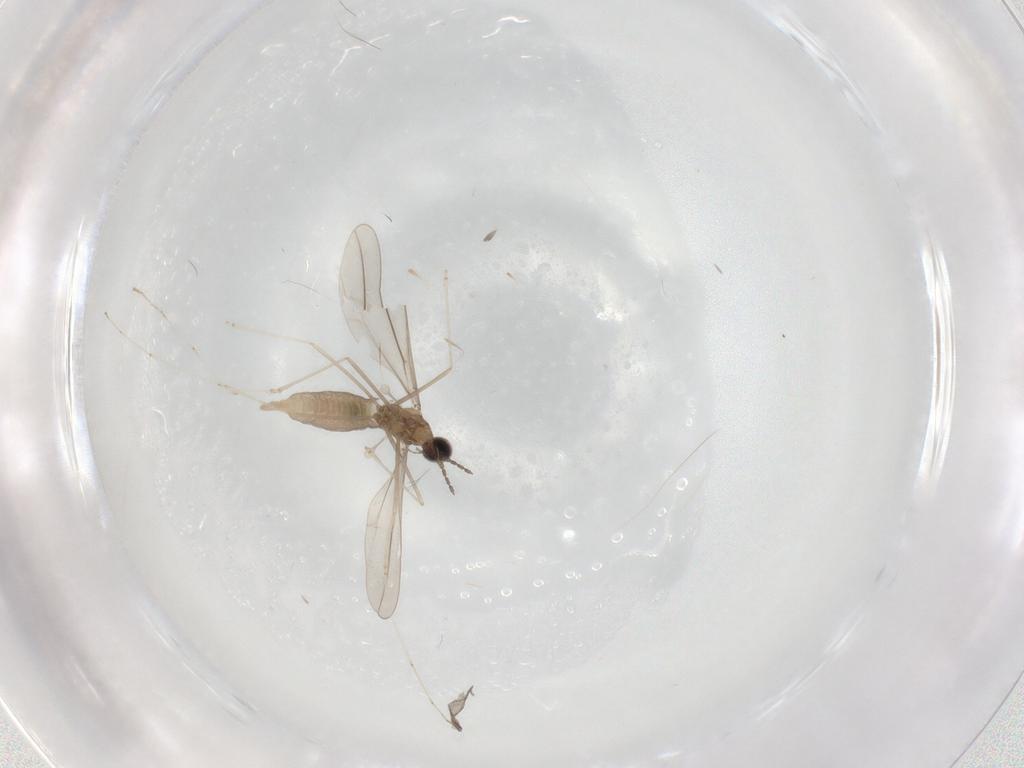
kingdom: Animalia
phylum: Arthropoda
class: Insecta
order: Diptera
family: Cecidomyiidae
